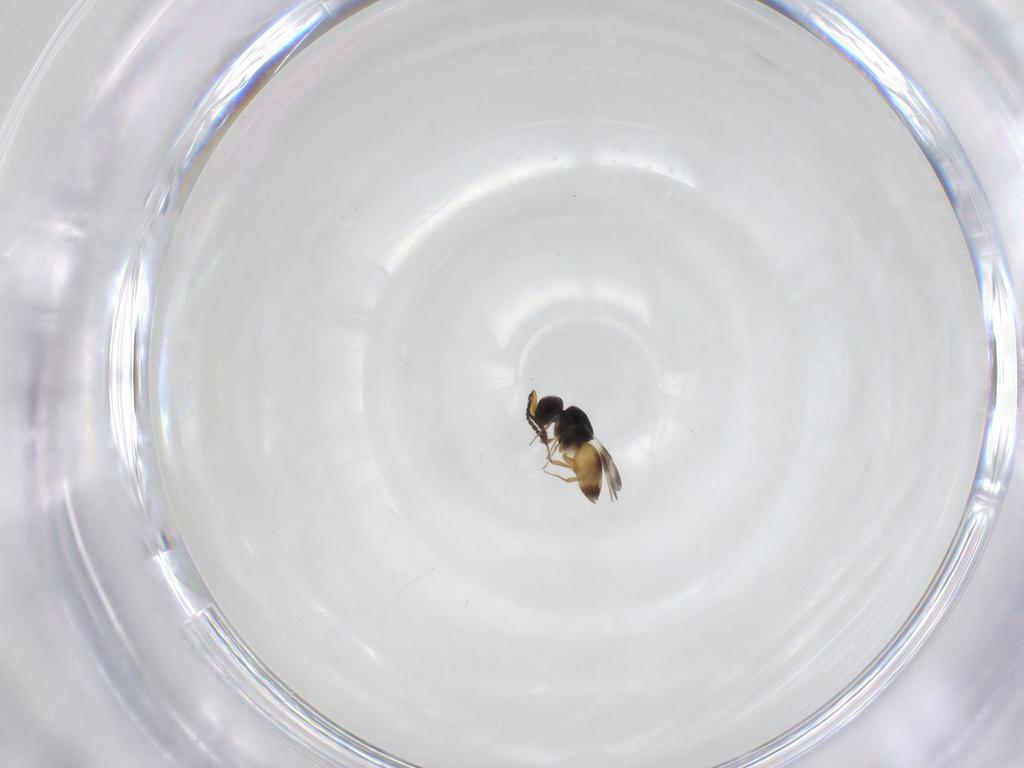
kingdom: Animalia
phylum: Arthropoda
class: Insecta
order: Hymenoptera
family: Ceraphronidae
